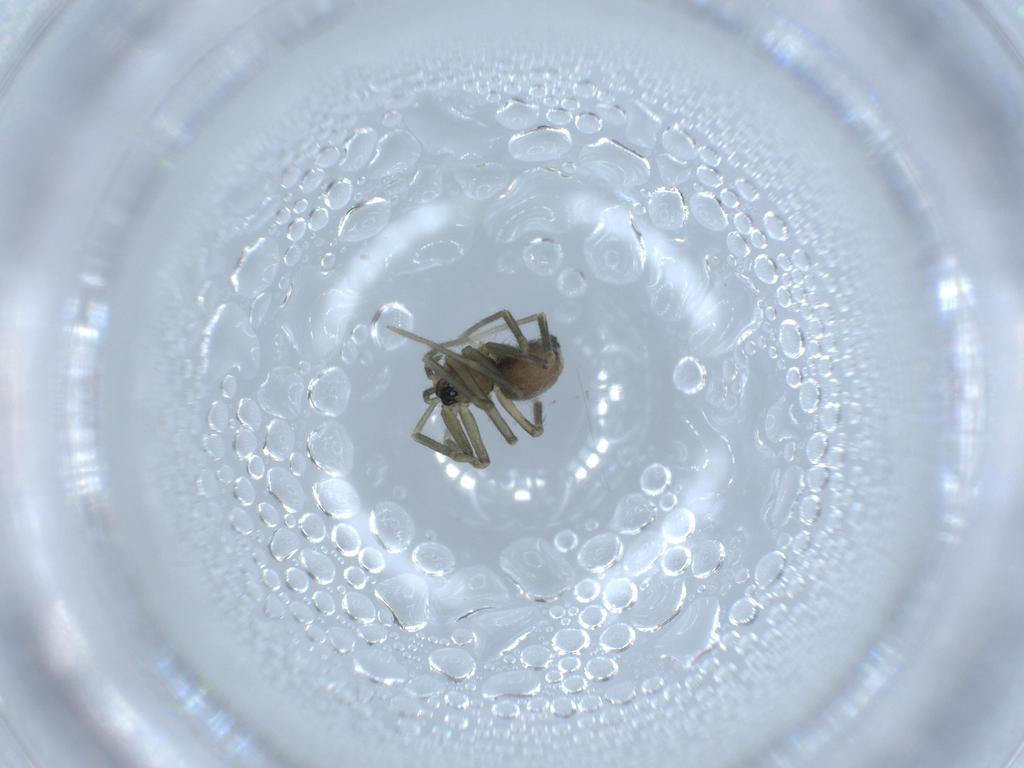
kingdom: Animalia
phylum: Arthropoda
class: Arachnida
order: Araneae
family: Linyphiidae
